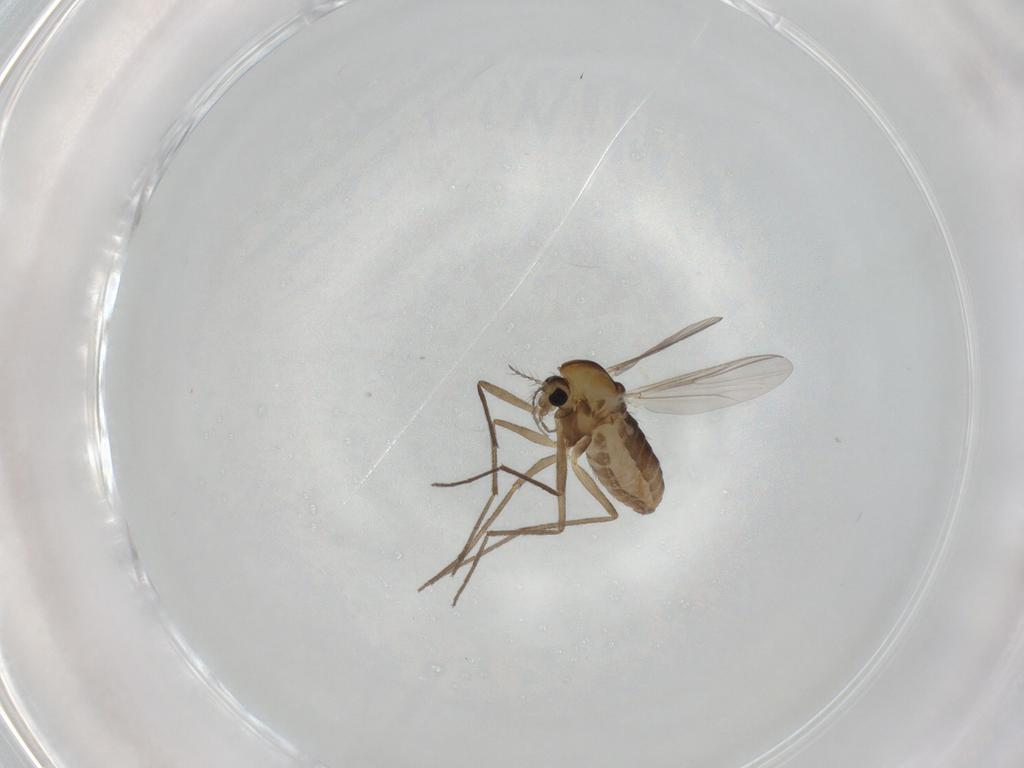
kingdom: Animalia
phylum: Arthropoda
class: Insecta
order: Diptera
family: Chironomidae
